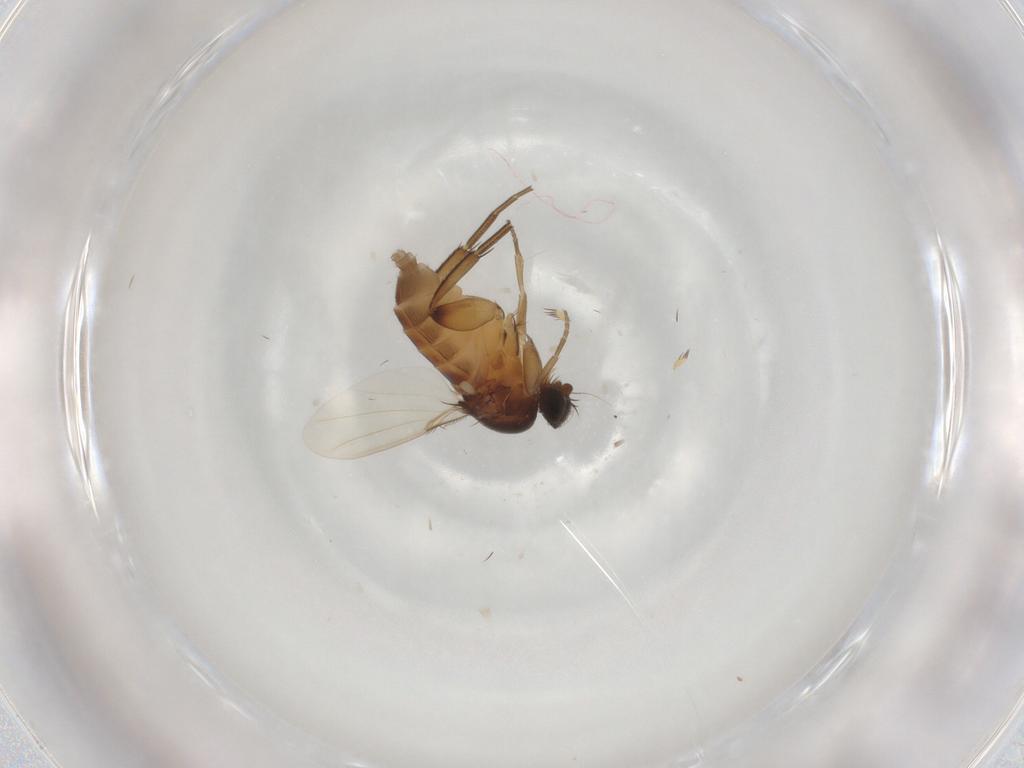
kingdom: Animalia
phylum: Arthropoda
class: Insecta
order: Diptera
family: Phoridae
